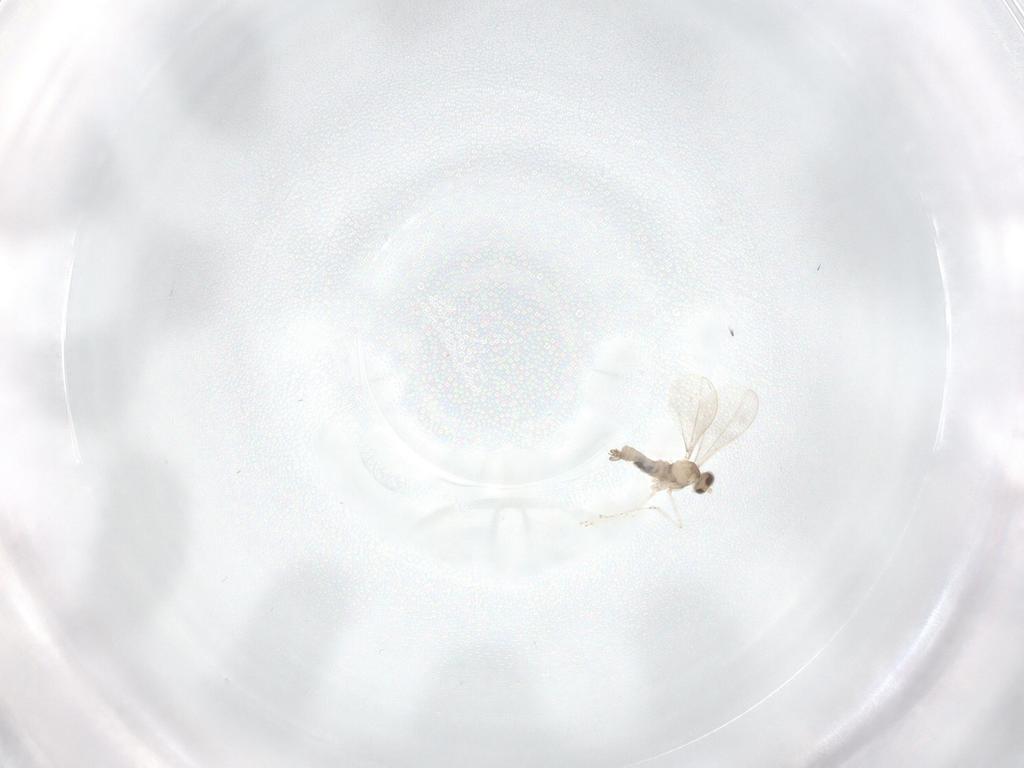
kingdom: Animalia
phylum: Arthropoda
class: Insecta
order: Diptera
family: Cecidomyiidae
